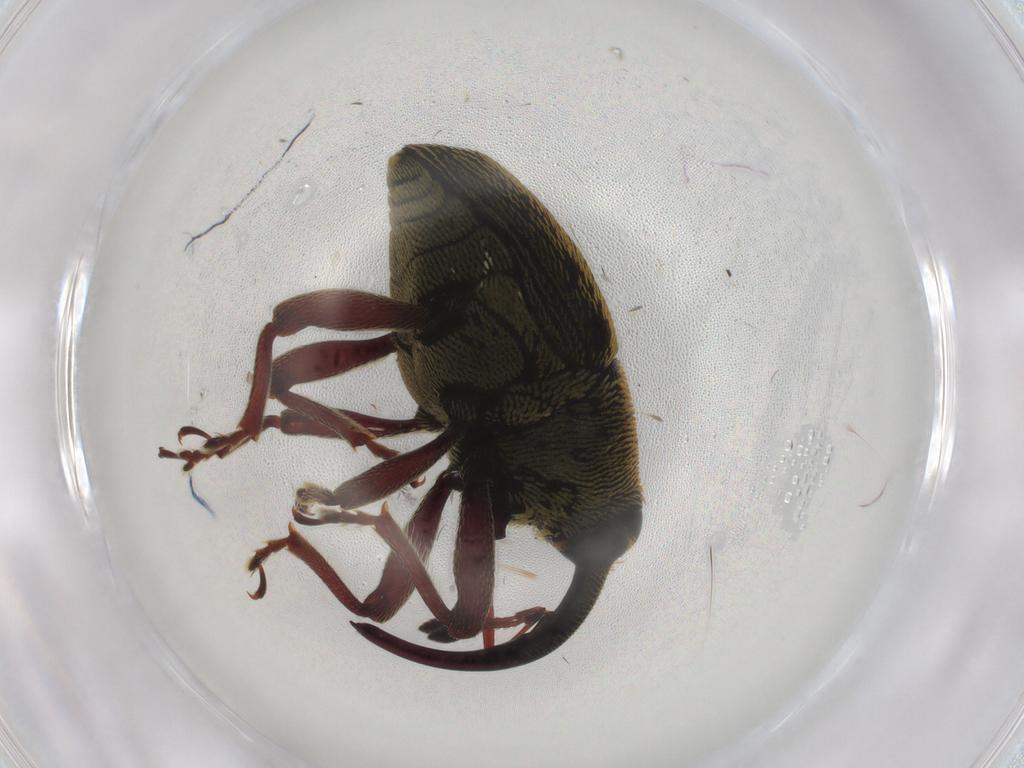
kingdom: Animalia
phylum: Arthropoda
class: Insecta
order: Coleoptera
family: Curculionidae
